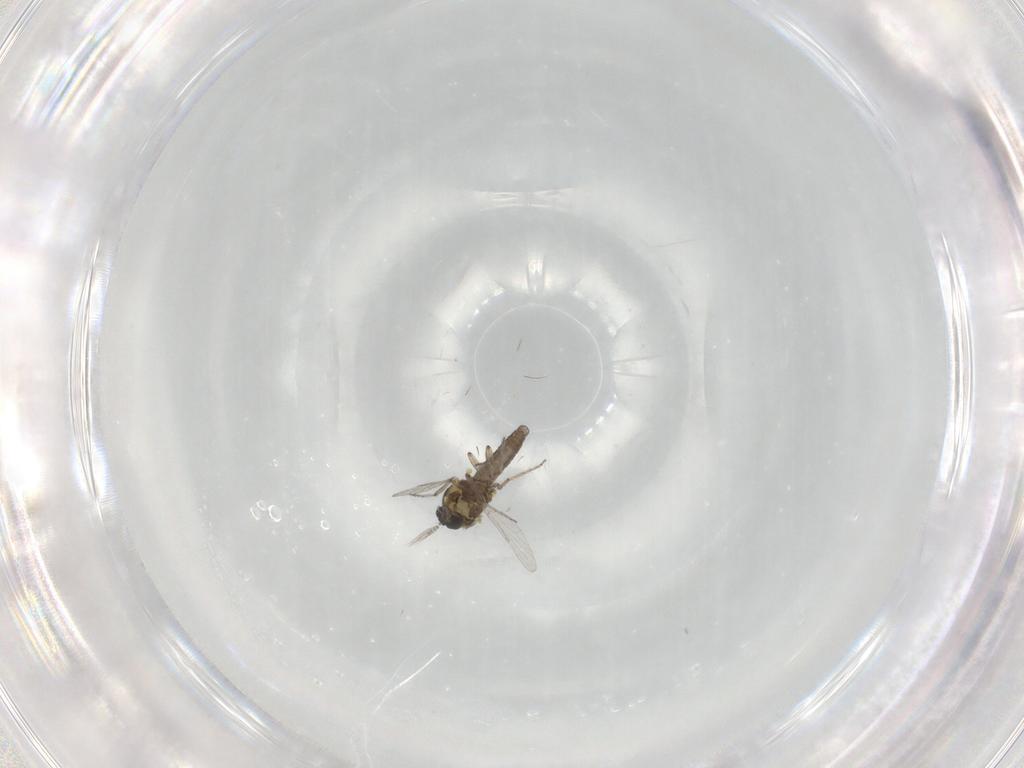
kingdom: Animalia
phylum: Arthropoda
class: Insecta
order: Diptera
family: Ceratopogonidae
